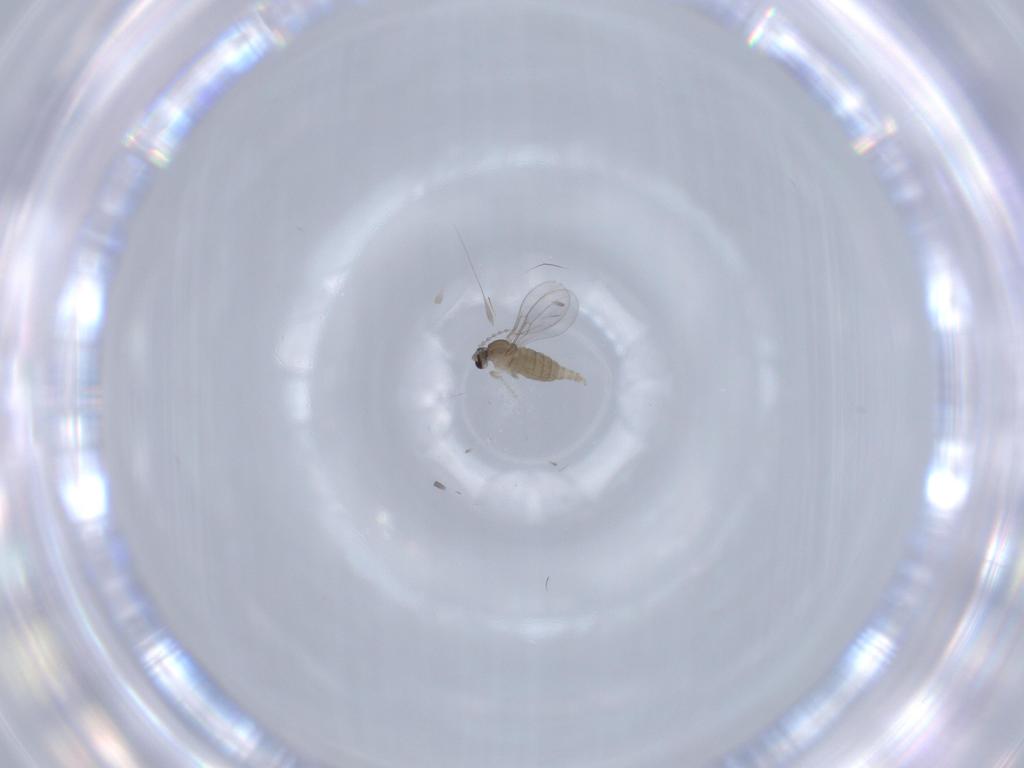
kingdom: Animalia
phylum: Arthropoda
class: Insecta
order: Diptera
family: Cecidomyiidae
